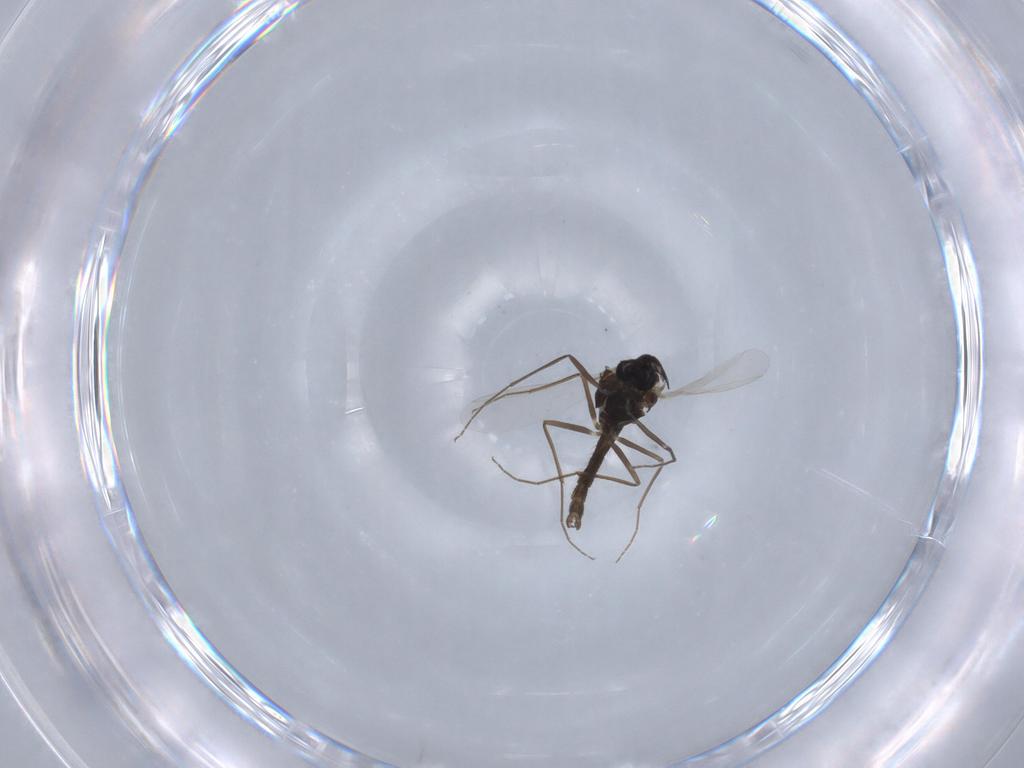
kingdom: Animalia
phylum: Arthropoda
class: Insecta
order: Diptera
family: Chironomidae
